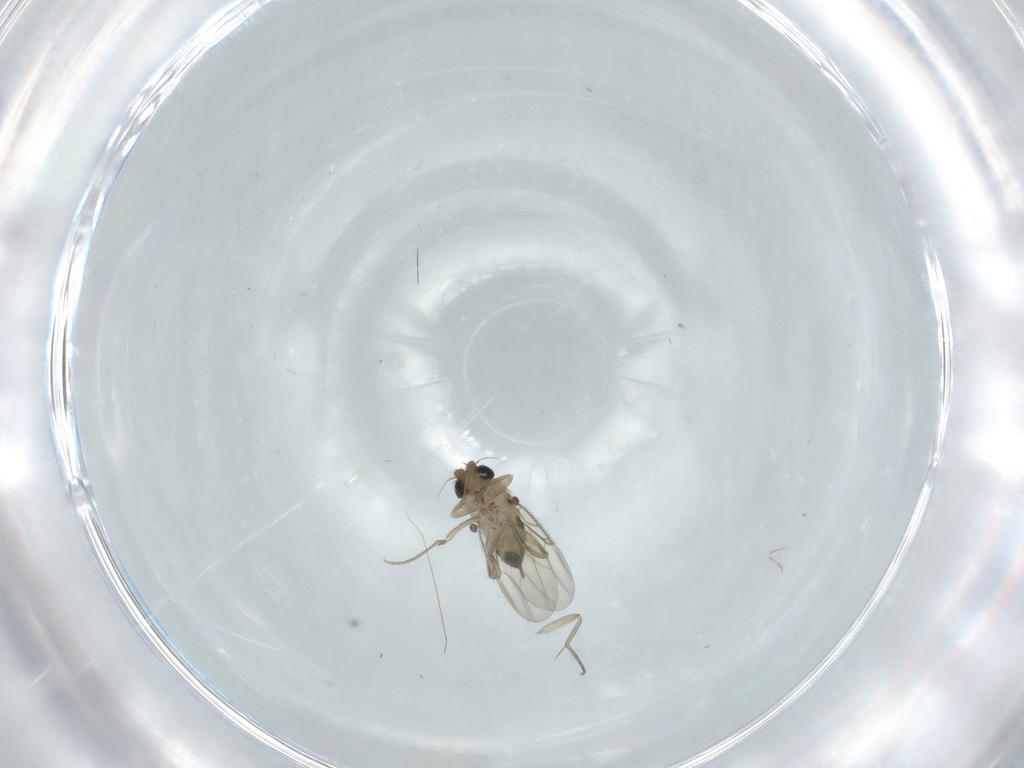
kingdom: Animalia
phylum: Arthropoda
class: Insecta
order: Diptera
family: Phoridae
